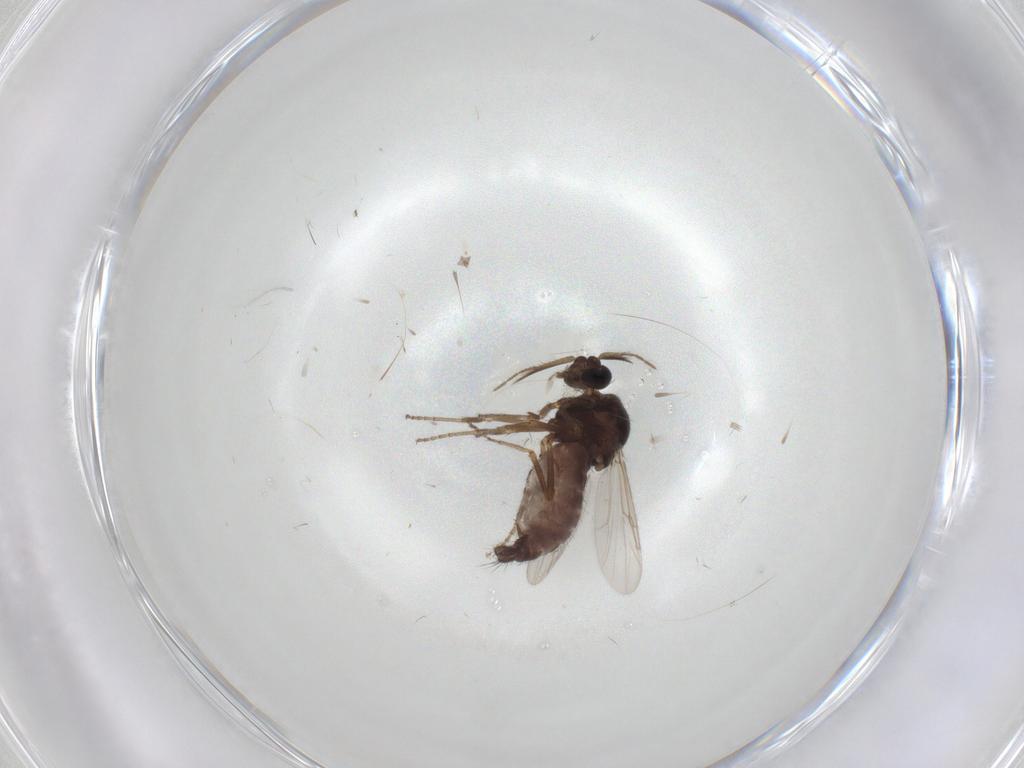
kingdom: Animalia
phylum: Arthropoda
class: Insecta
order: Diptera
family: Ceratopogonidae
